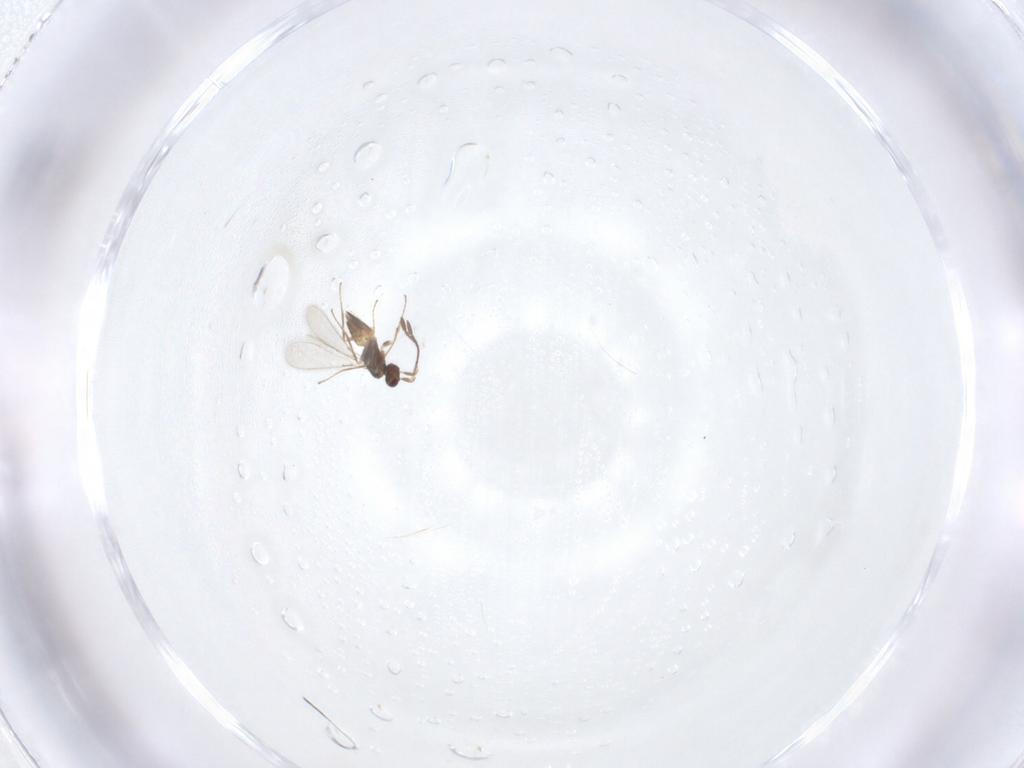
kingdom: Animalia
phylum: Arthropoda
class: Insecta
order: Hymenoptera
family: Mymaridae
